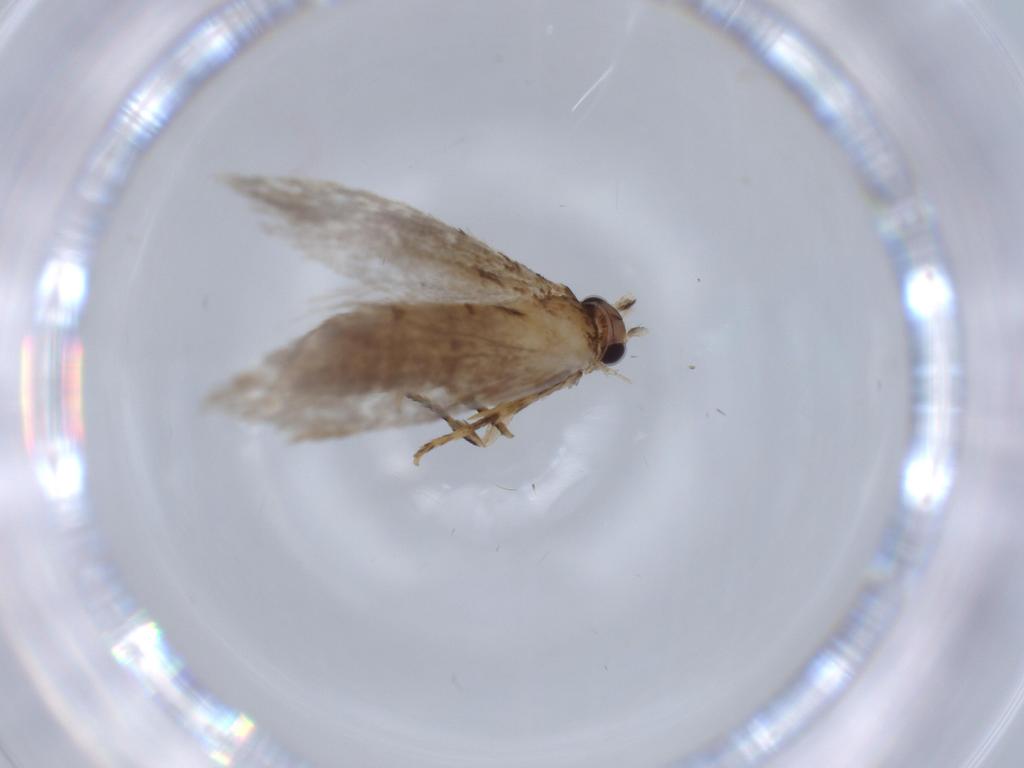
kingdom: Animalia
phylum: Arthropoda
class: Insecta
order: Lepidoptera
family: Tineidae
